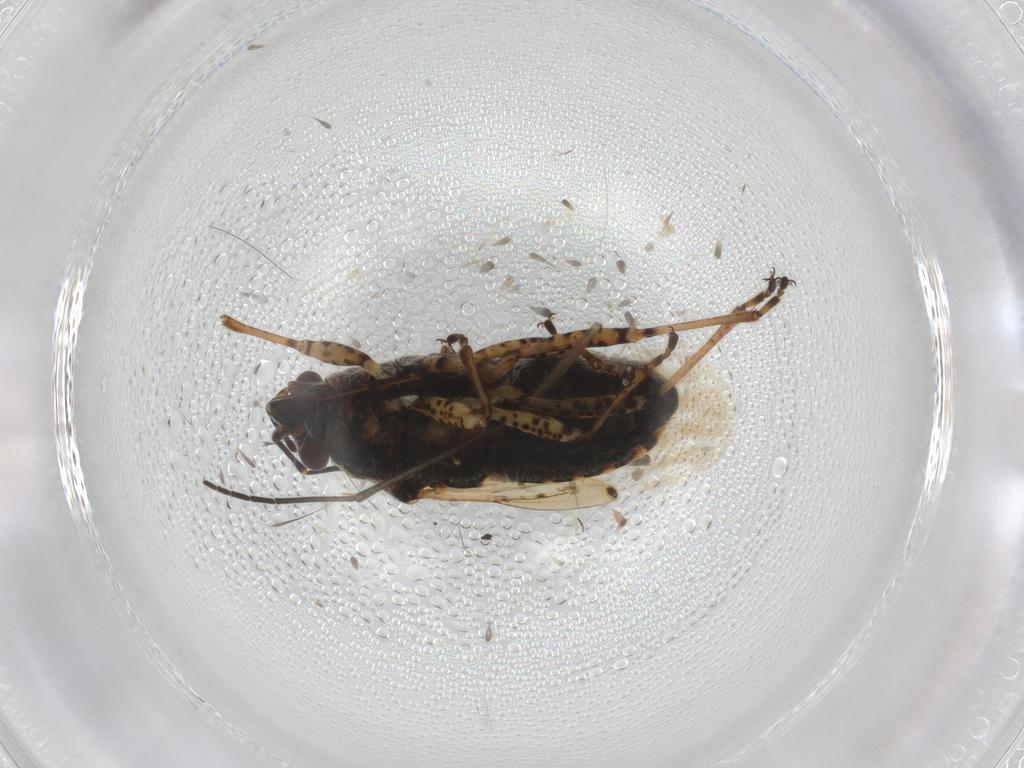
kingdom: Animalia
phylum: Arthropoda
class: Insecta
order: Hemiptera
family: Lygaeidae
